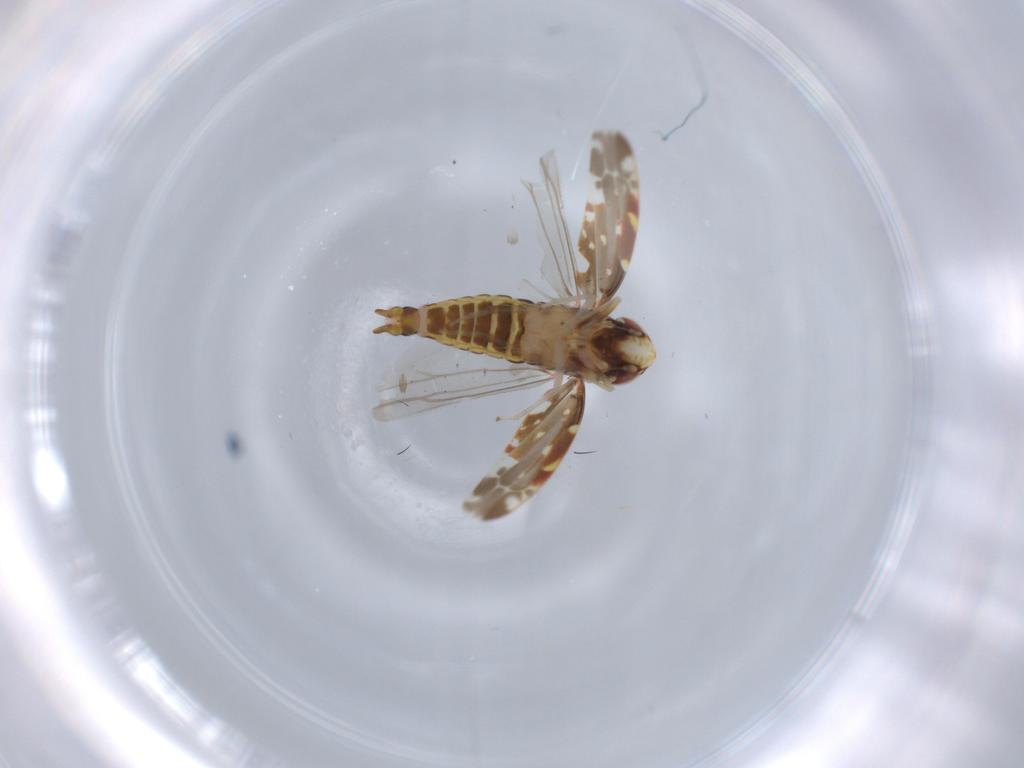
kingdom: Animalia
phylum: Arthropoda
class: Insecta
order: Hemiptera
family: Cicadellidae
